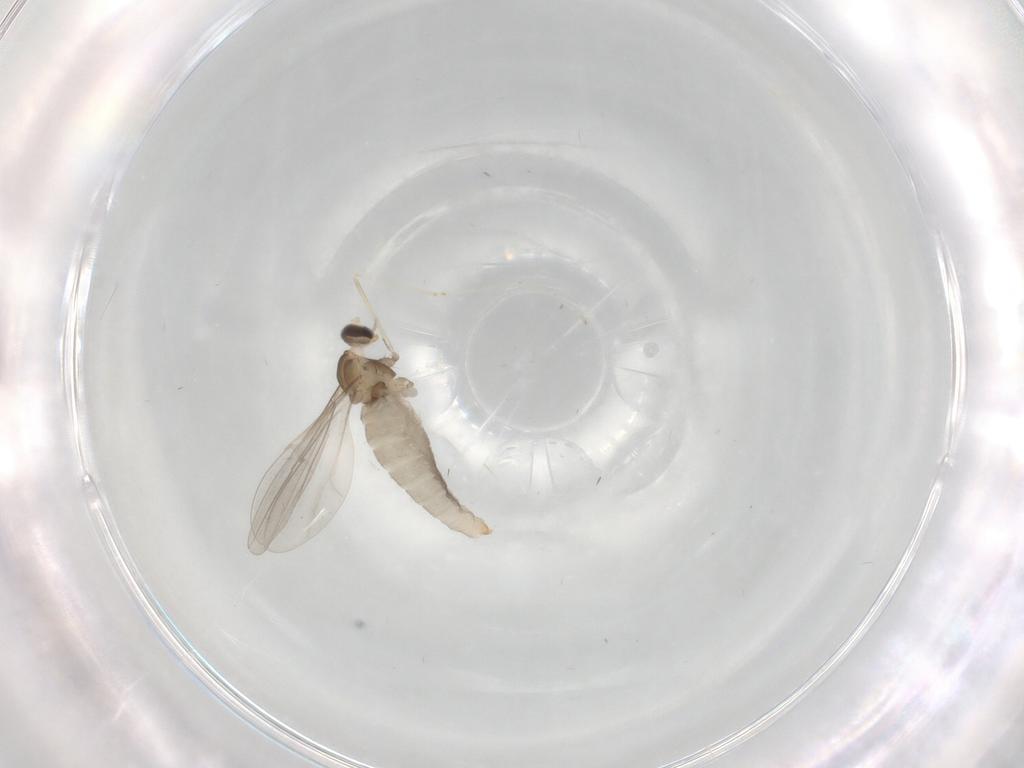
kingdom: Animalia
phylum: Arthropoda
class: Insecta
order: Diptera
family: Cecidomyiidae
